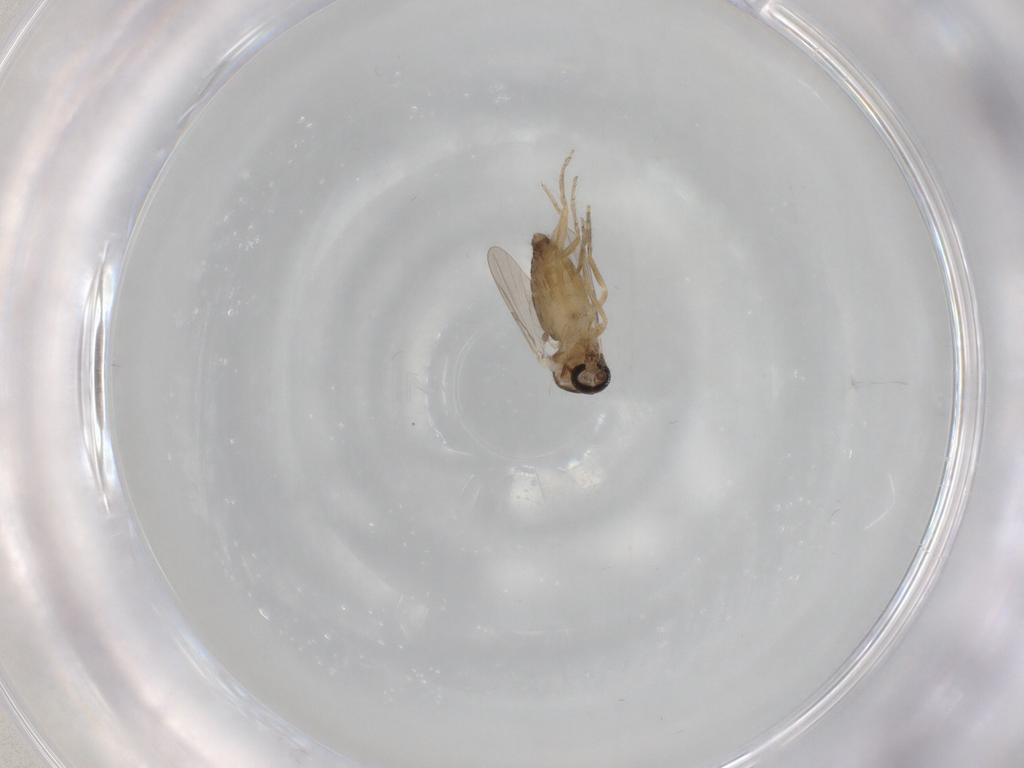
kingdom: Animalia
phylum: Arthropoda
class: Insecta
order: Diptera
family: Ceratopogonidae
